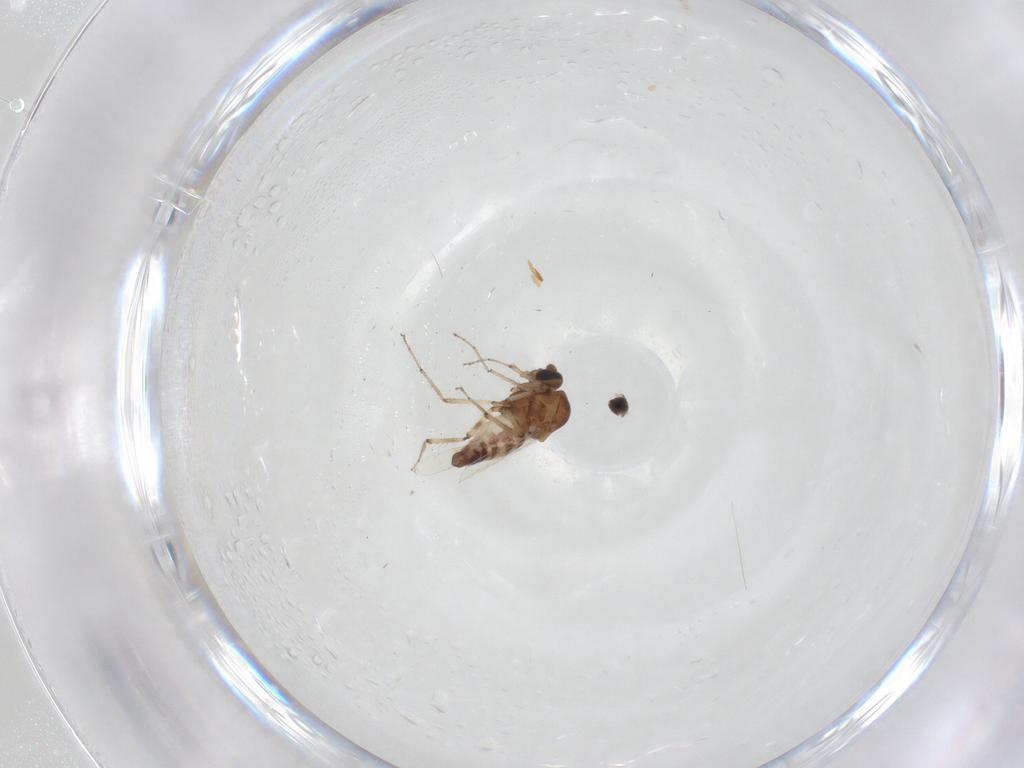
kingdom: Animalia
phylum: Arthropoda
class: Insecta
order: Diptera
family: Ceratopogonidae
